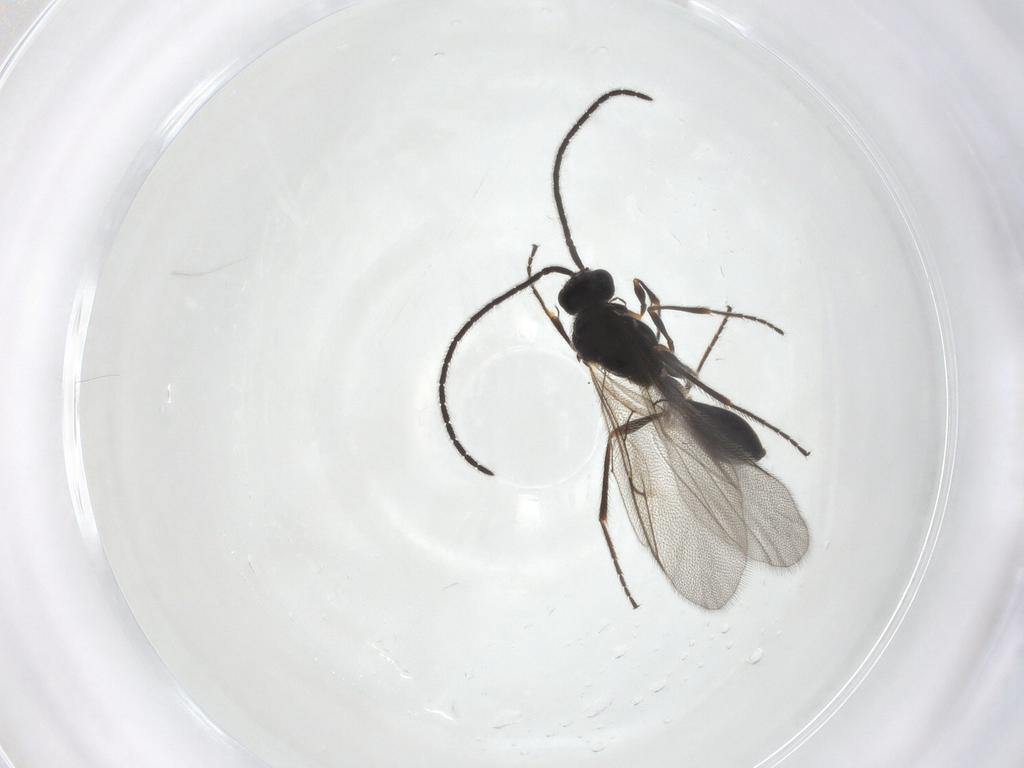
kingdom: Animalia
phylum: Arthropoda
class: Insecta
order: Hymenoptera
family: Diapriidae
